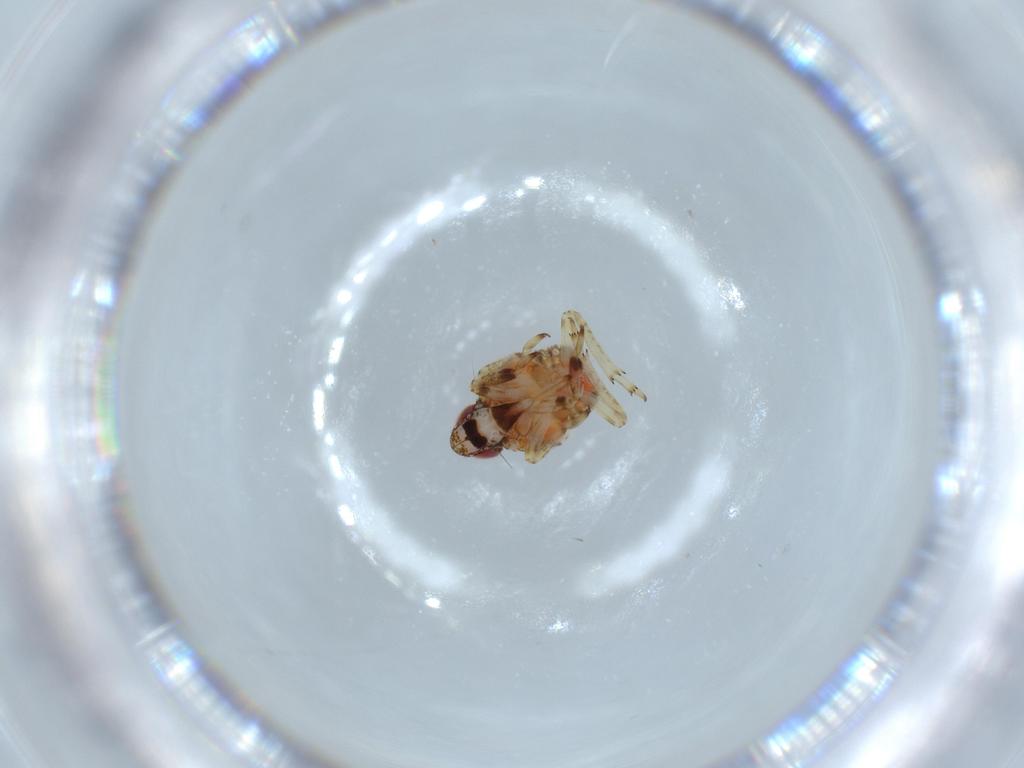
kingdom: Animalia
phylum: Arthropoda
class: Insecta
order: Hemiptera
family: Issidae
